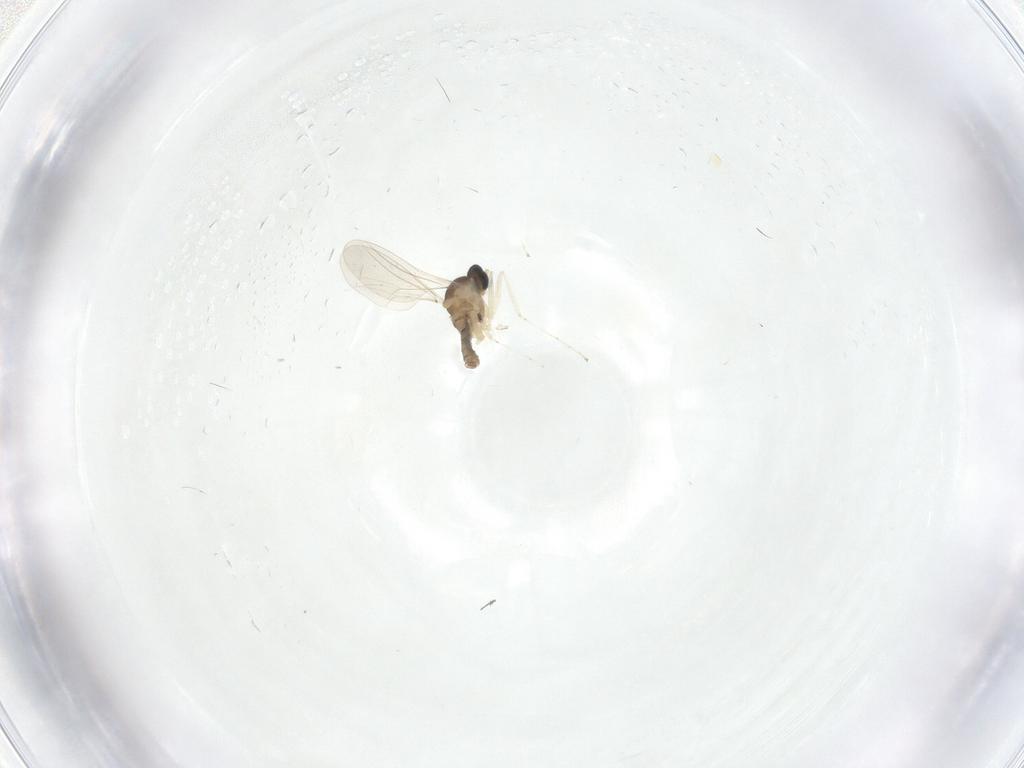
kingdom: Animalia
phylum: Arthropoda
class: Insecta
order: Diptera
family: Cecidomyiidae
